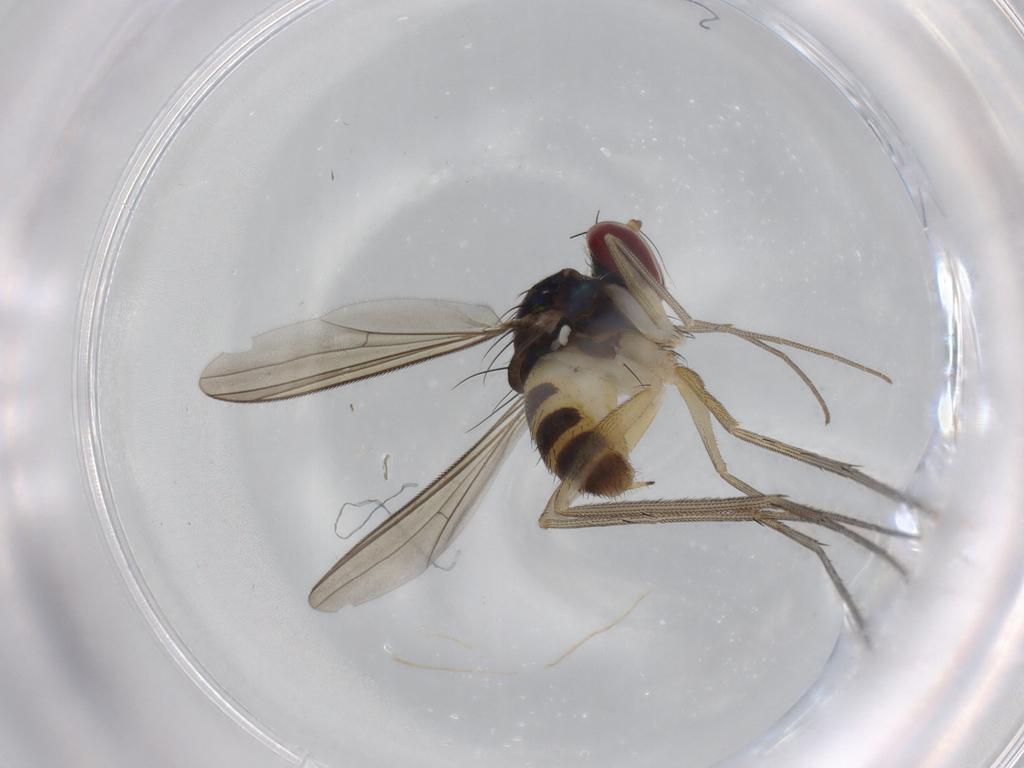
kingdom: Animalia
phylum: Arthropoda
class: Insecta
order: Diptera
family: Dolichopodidae
